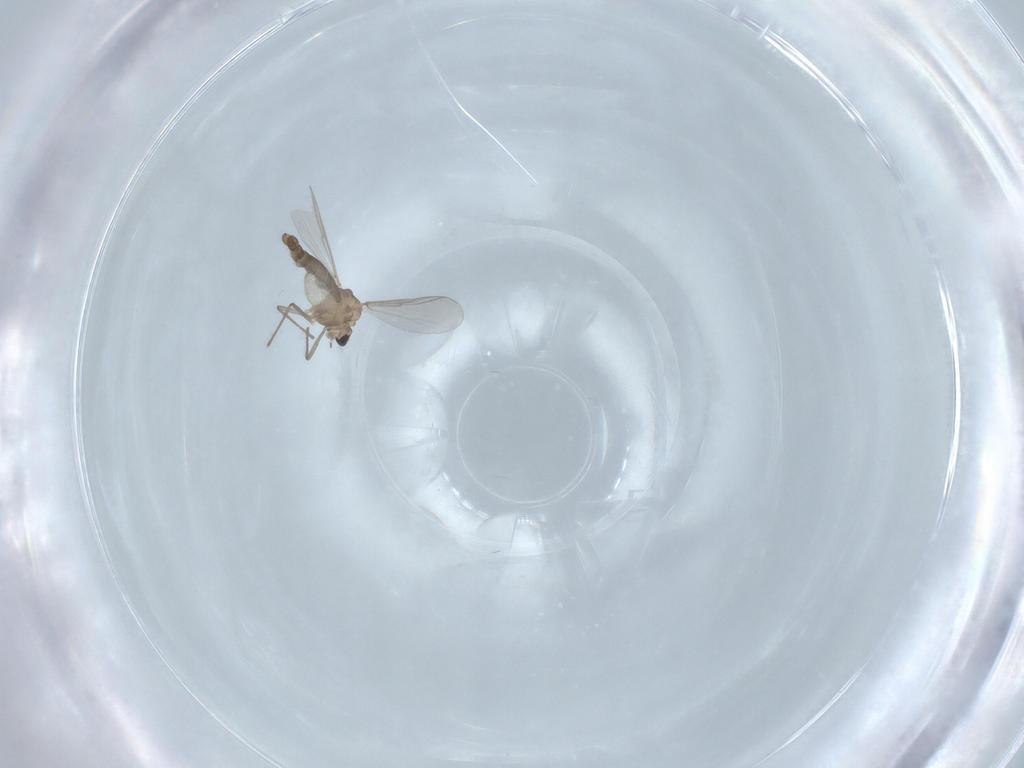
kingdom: Animalia
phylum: Arthropoda
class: Insecta
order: Diptera
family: Chironomidae
